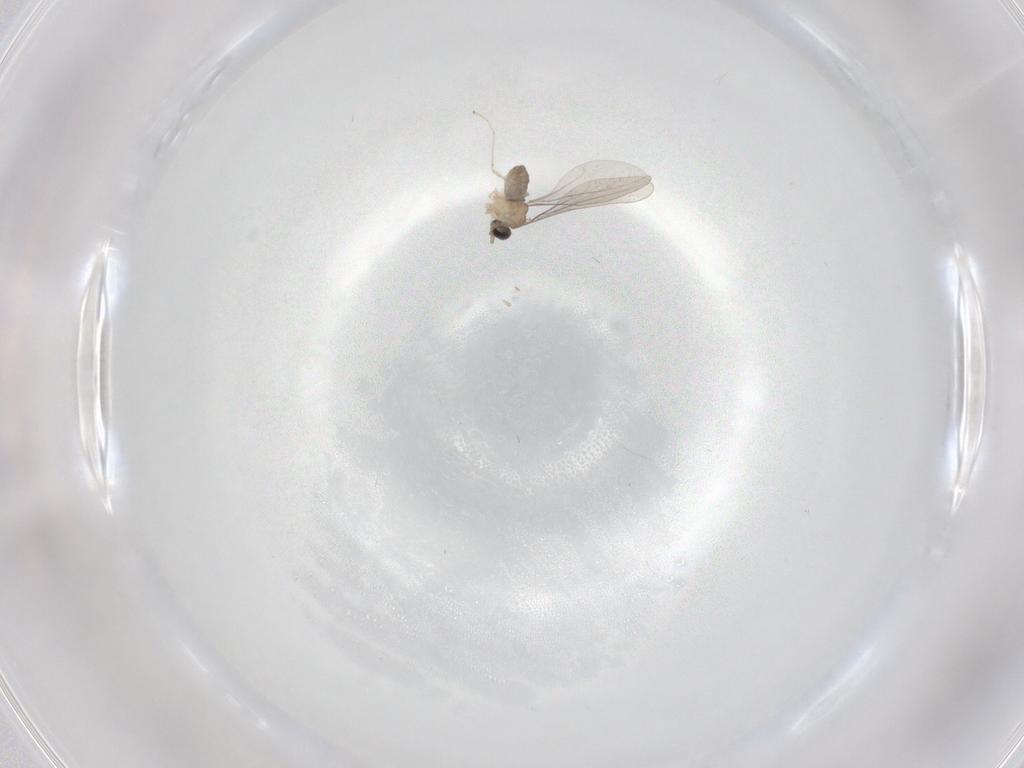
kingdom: Animalia
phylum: Arthropoda
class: Insecta
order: Diptera
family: Cecidomyiidae
